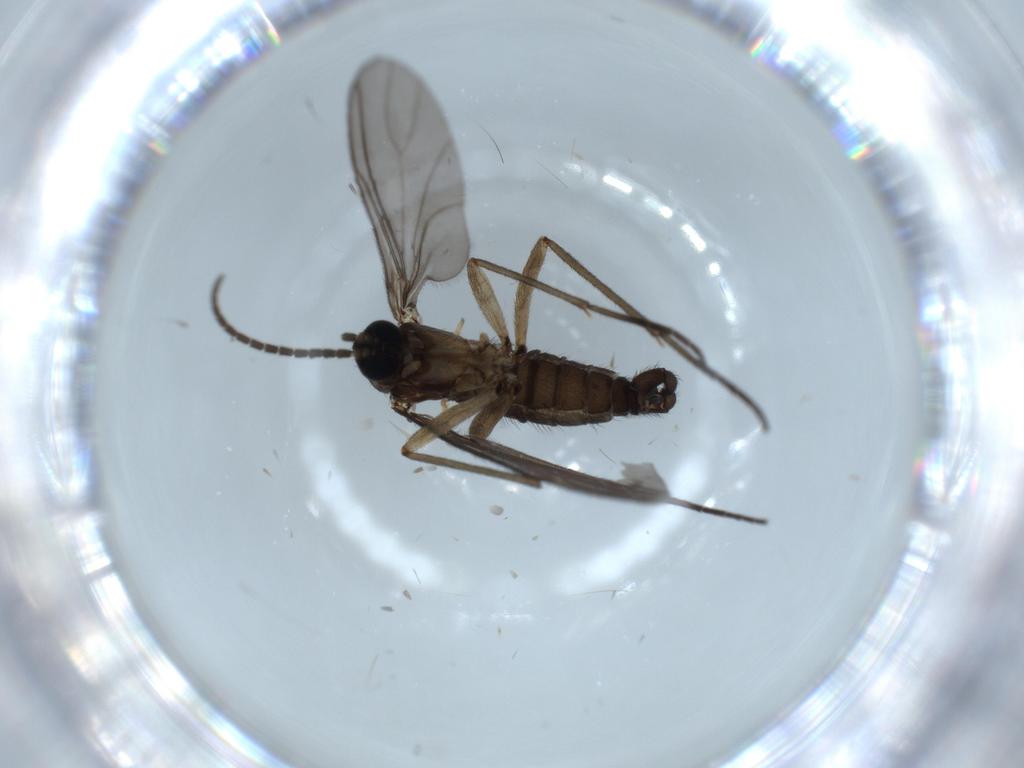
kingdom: Animalia
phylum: Arthropoda
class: Insecta
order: Diptera
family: Sciaridae
